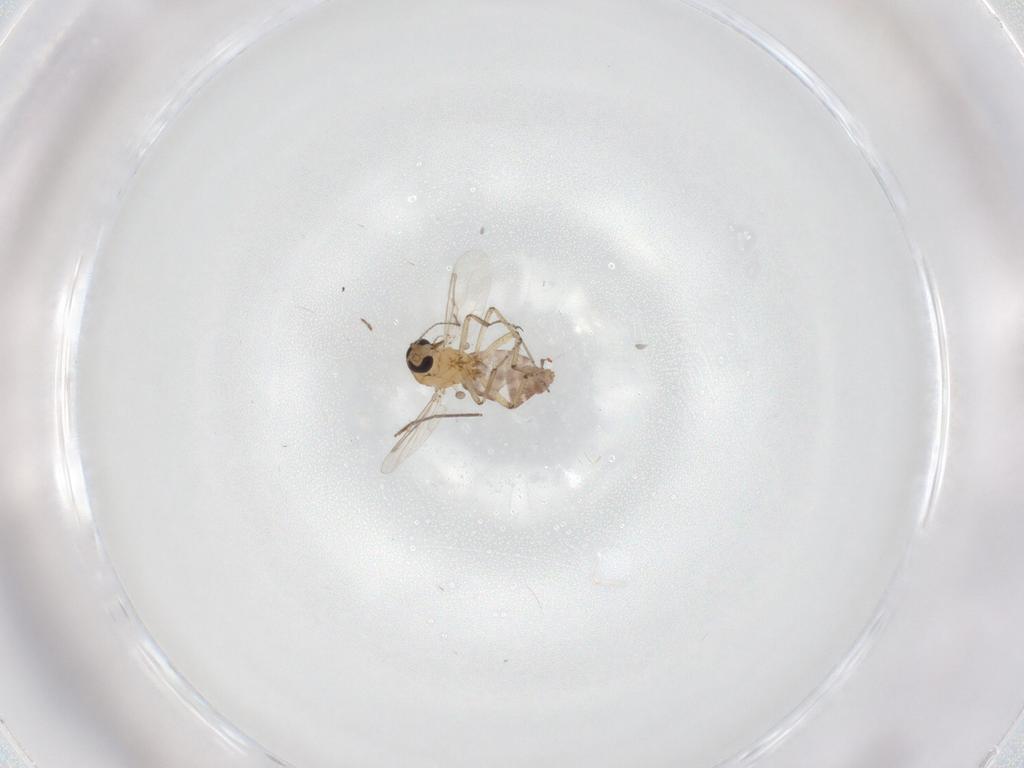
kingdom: Animalia
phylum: Arthropoda
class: Insecta
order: Diptera
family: Ceratopogonidae
